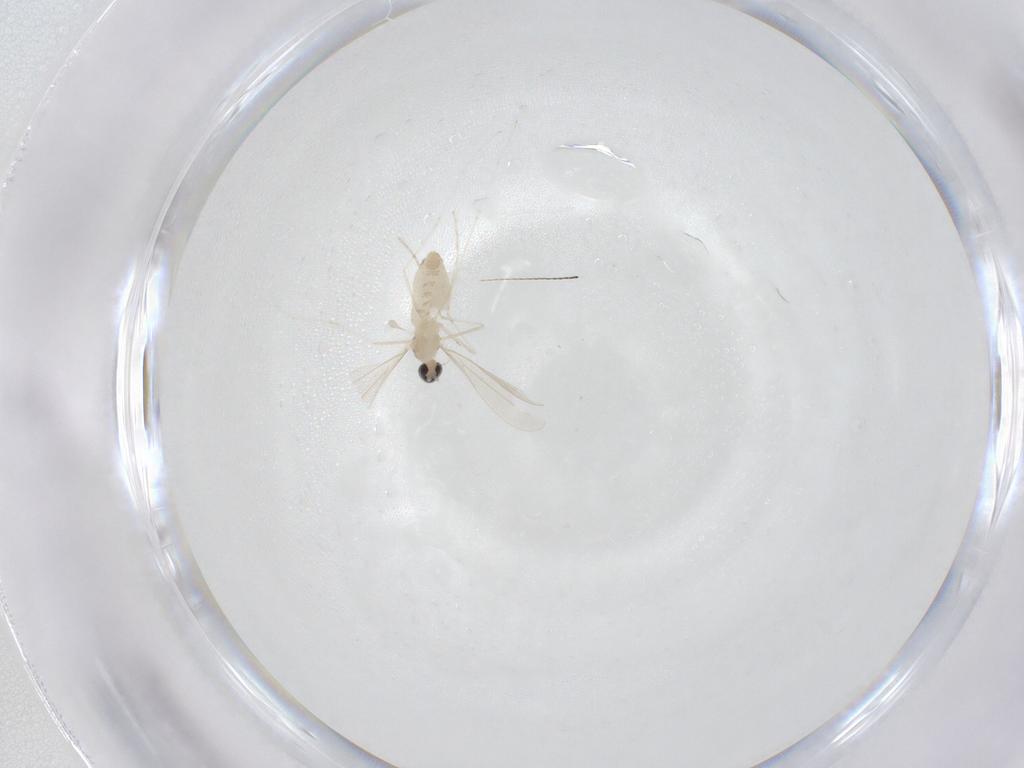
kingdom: Animalia
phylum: Arthropoda
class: Insecta
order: Diptera
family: Cecidomyiidae
